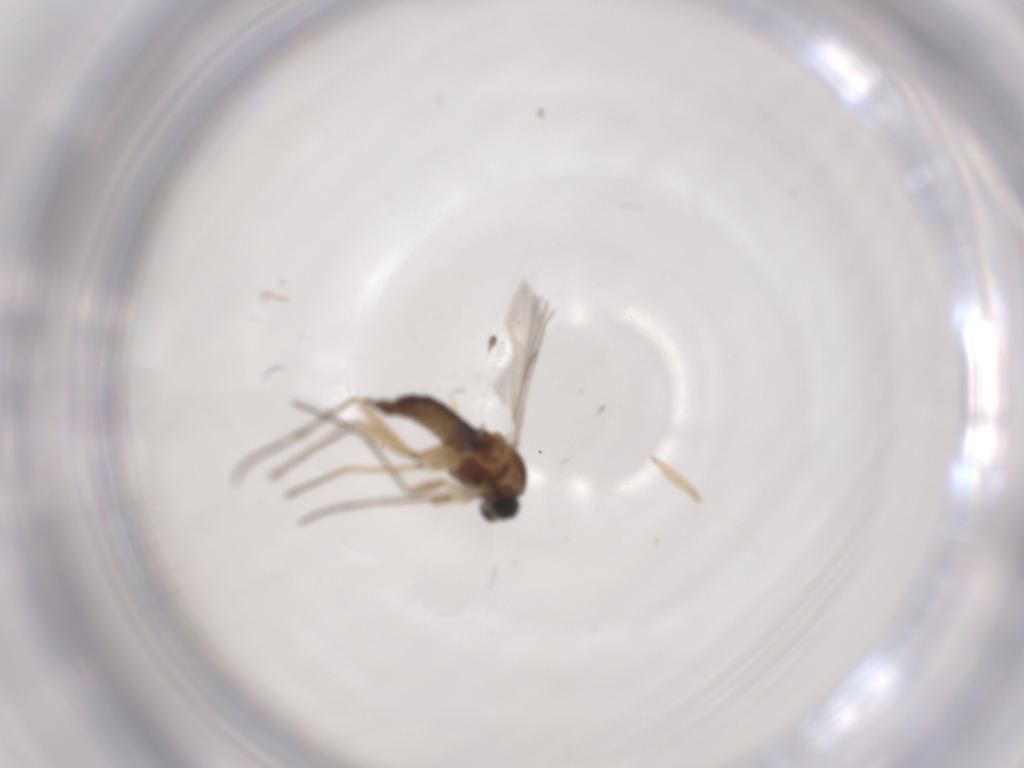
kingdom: Animalia
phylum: Arthropoda
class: Insecta
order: Diptera
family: Sciaridae
